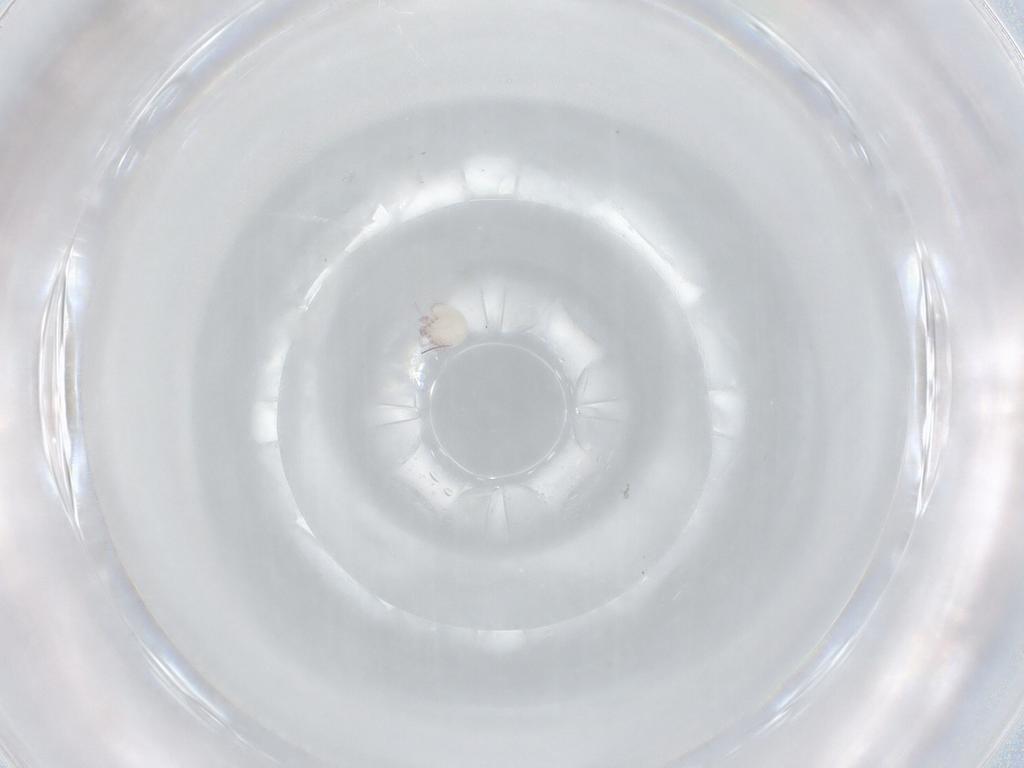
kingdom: Animalia
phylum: Arthropoda
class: Arachnida
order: Trombidiformes
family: Arrenuridae
